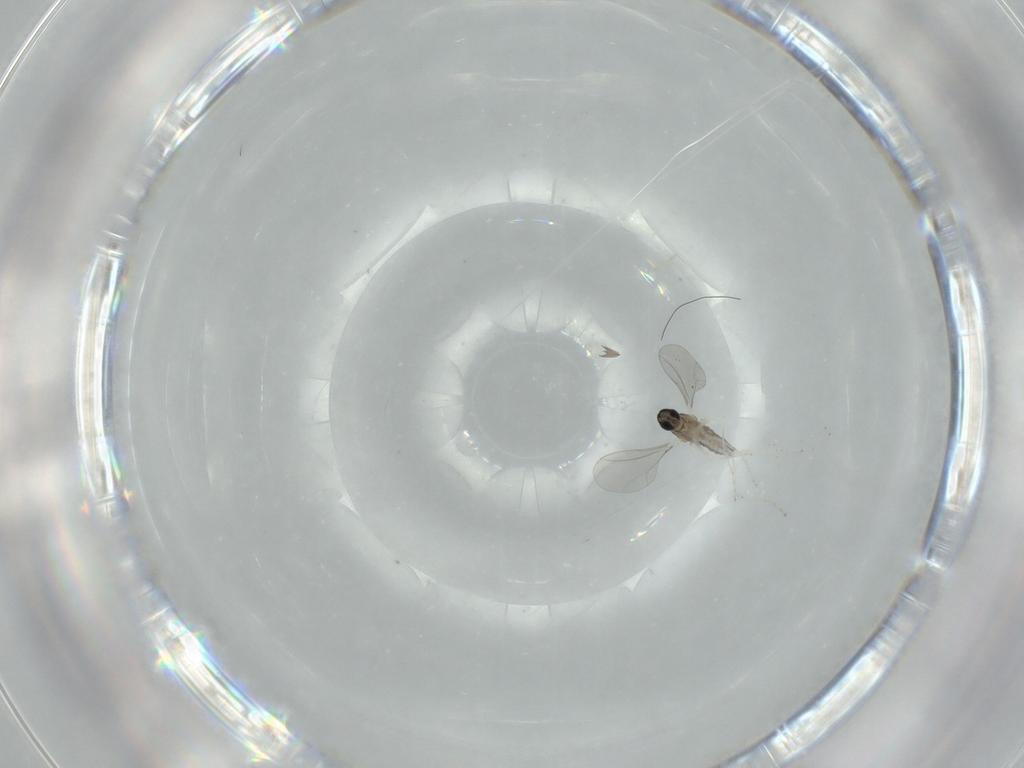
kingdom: Animalia
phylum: Arthropoda
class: Insecta
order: Diptera
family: Cecidomyiidae
